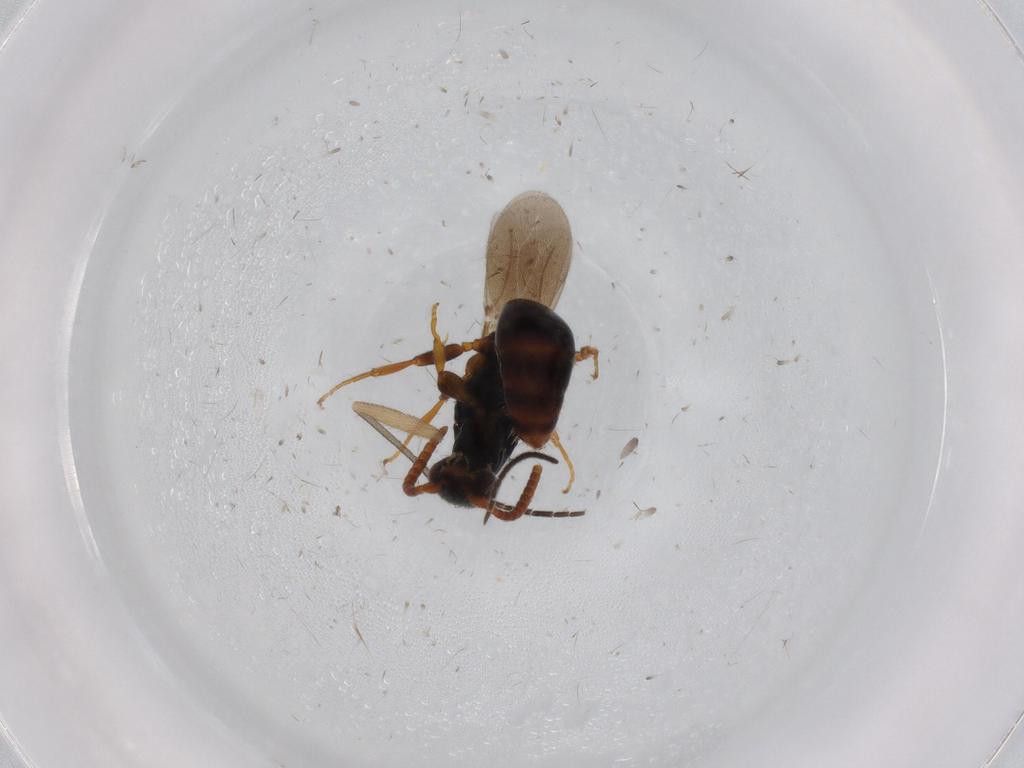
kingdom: Animalia
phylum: Arthropoda
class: Insecta
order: Hymenoptera
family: Bethylidae
